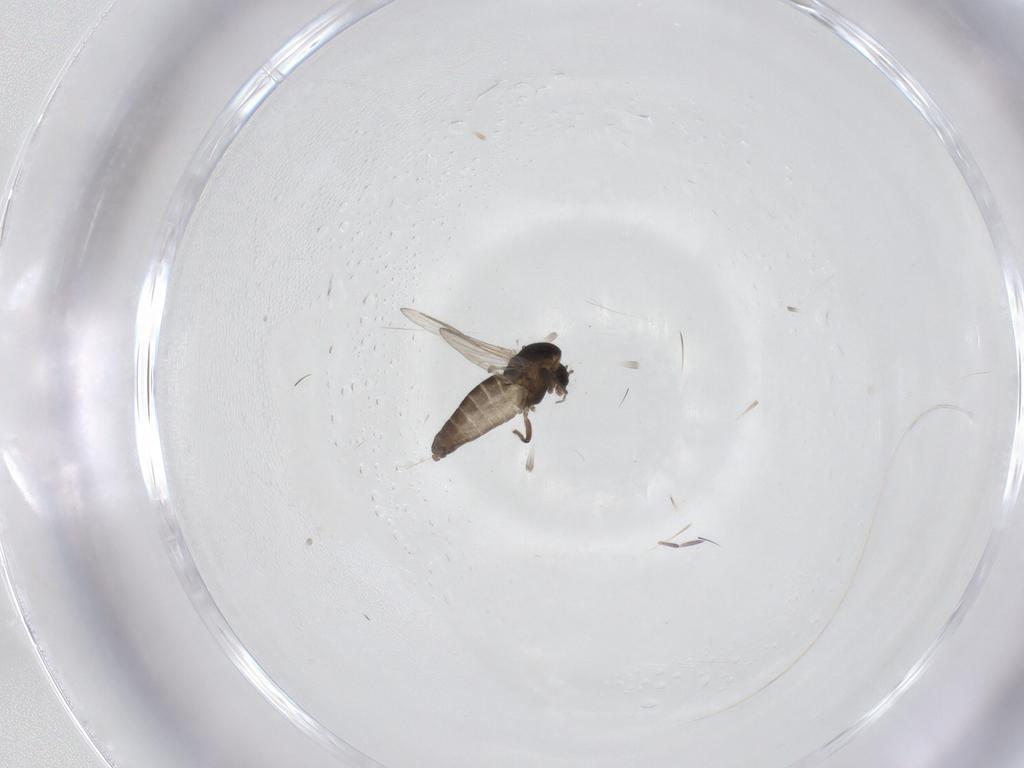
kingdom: Animalia
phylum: Arthropoda
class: Insecta
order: Diptera
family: Chironomidae
